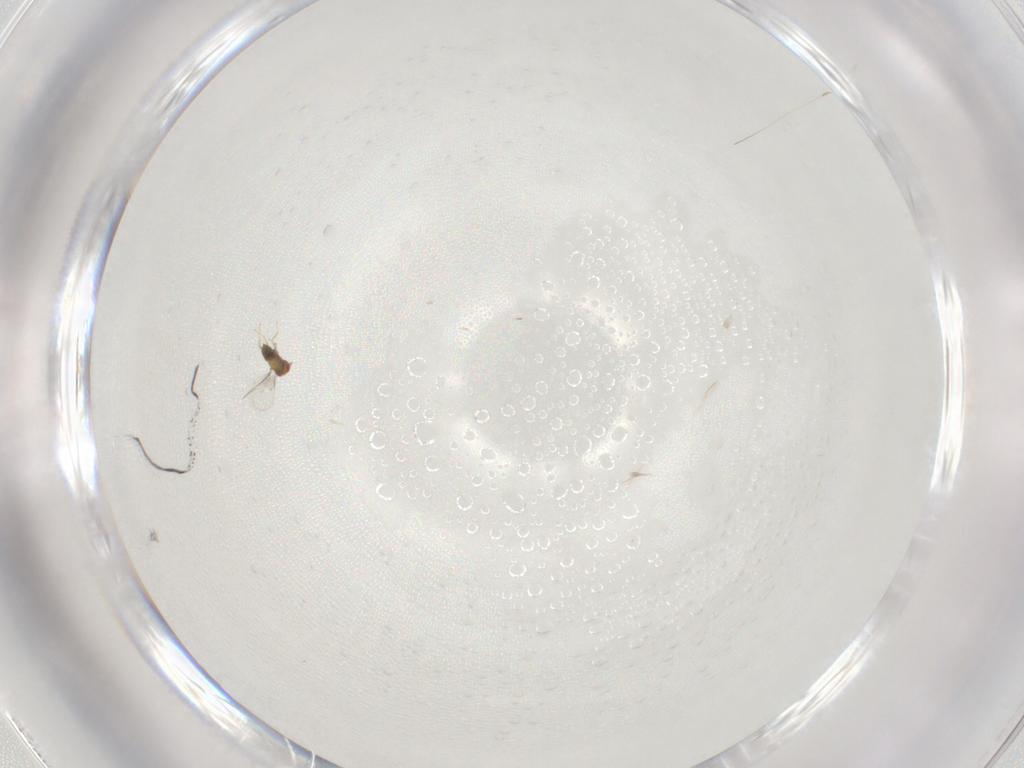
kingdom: Animalia
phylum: Arthropoda
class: Insecta
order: Hymenoptera
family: Trichogrammatidae
